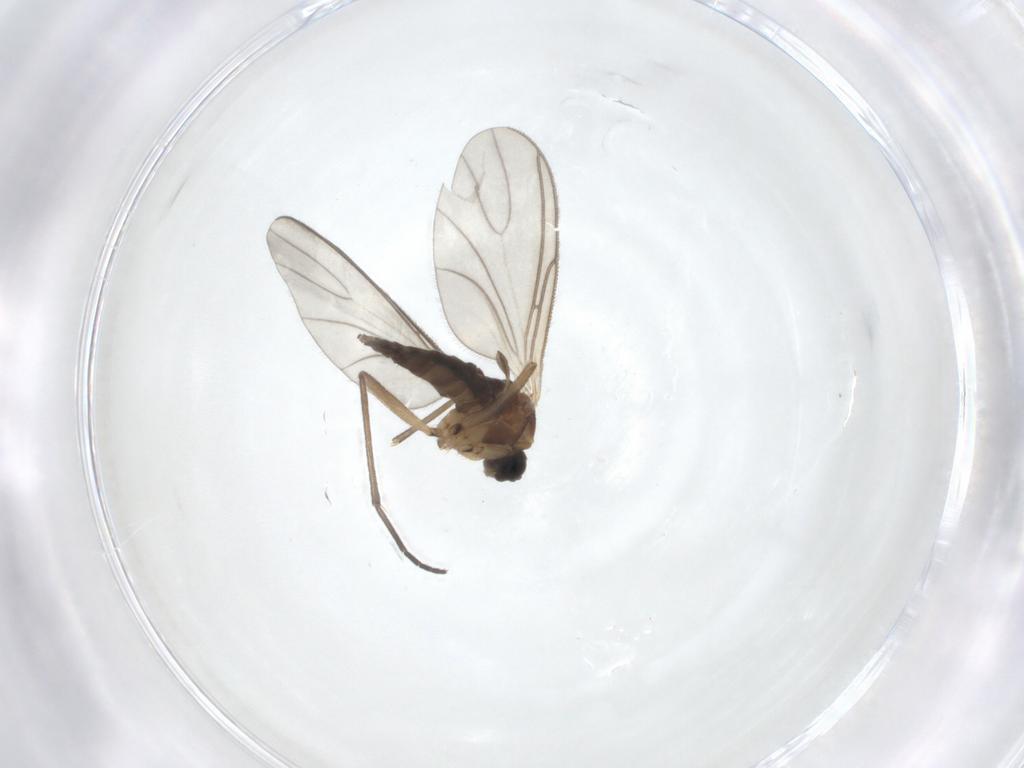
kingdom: Animalia
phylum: Arthropoda
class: Insecta
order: Diptera
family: Sciaridae
